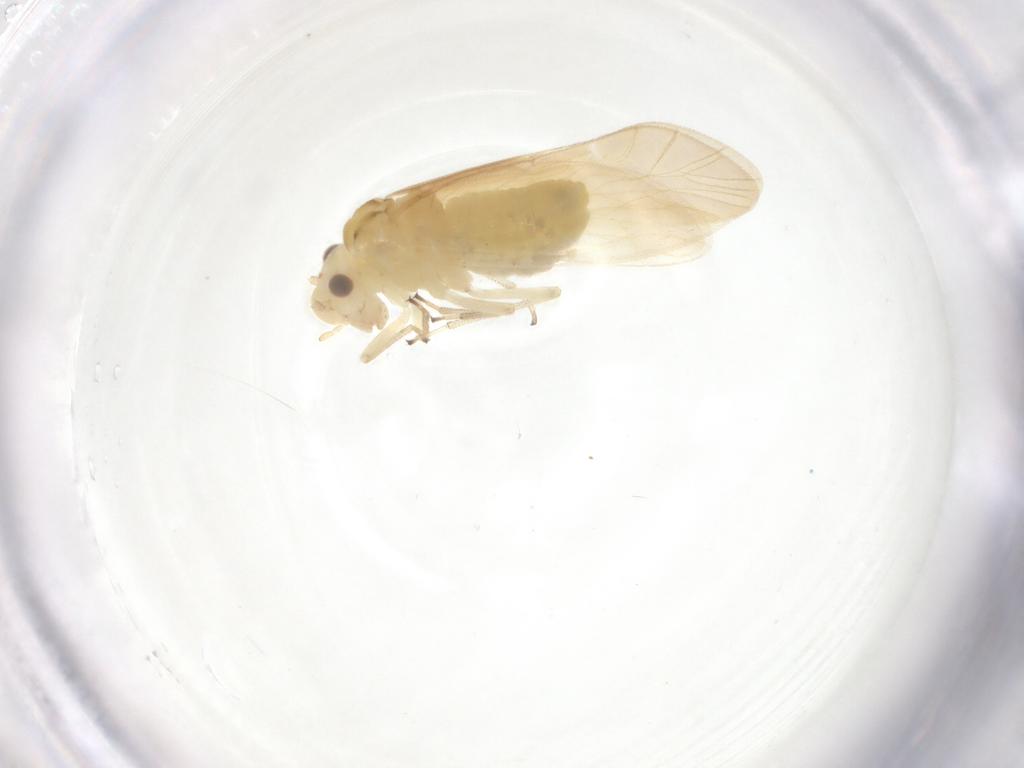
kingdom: Animalia
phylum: Arthropoda
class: Insecta
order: Psocodea
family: Caeciliusidae
